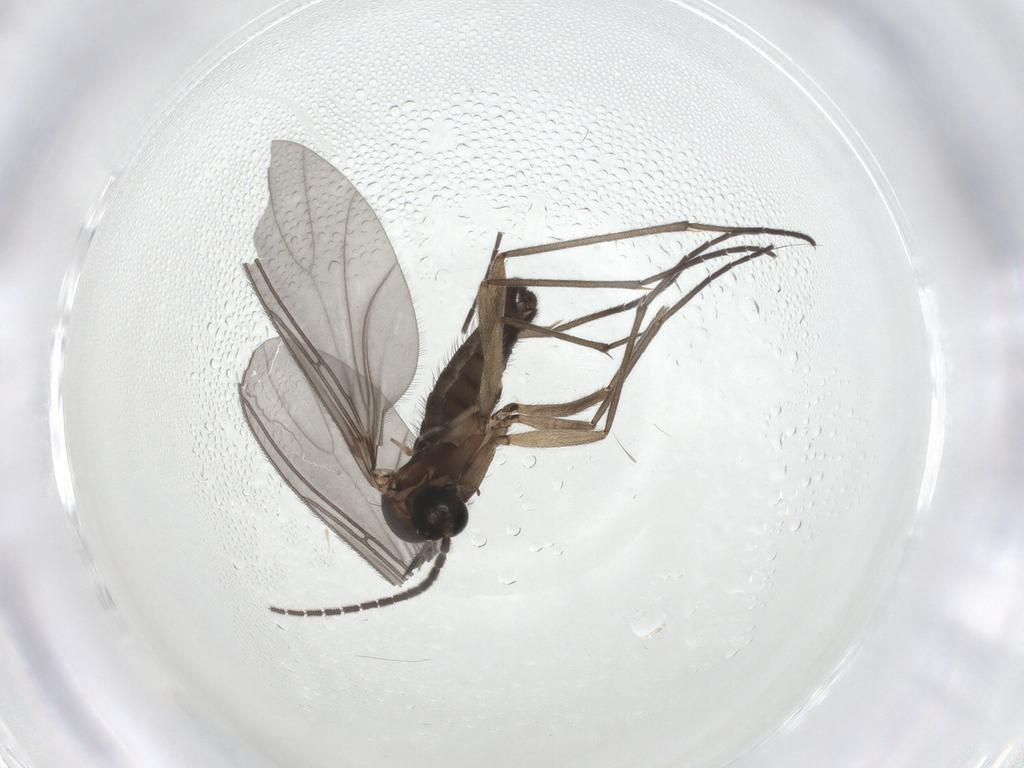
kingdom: Animalia
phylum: Arthropoda
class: Insecta
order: Diptera
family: Sciaridae
